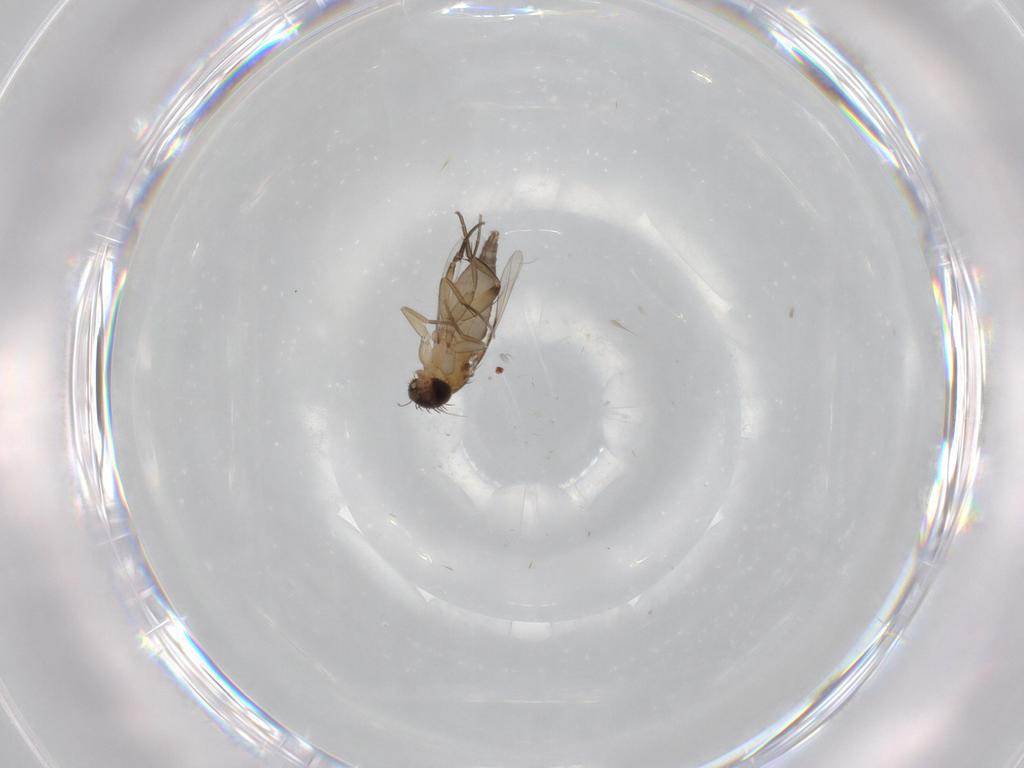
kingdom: Animalia
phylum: Arthropoda
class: Insecta
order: Diptera
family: Phoridae
